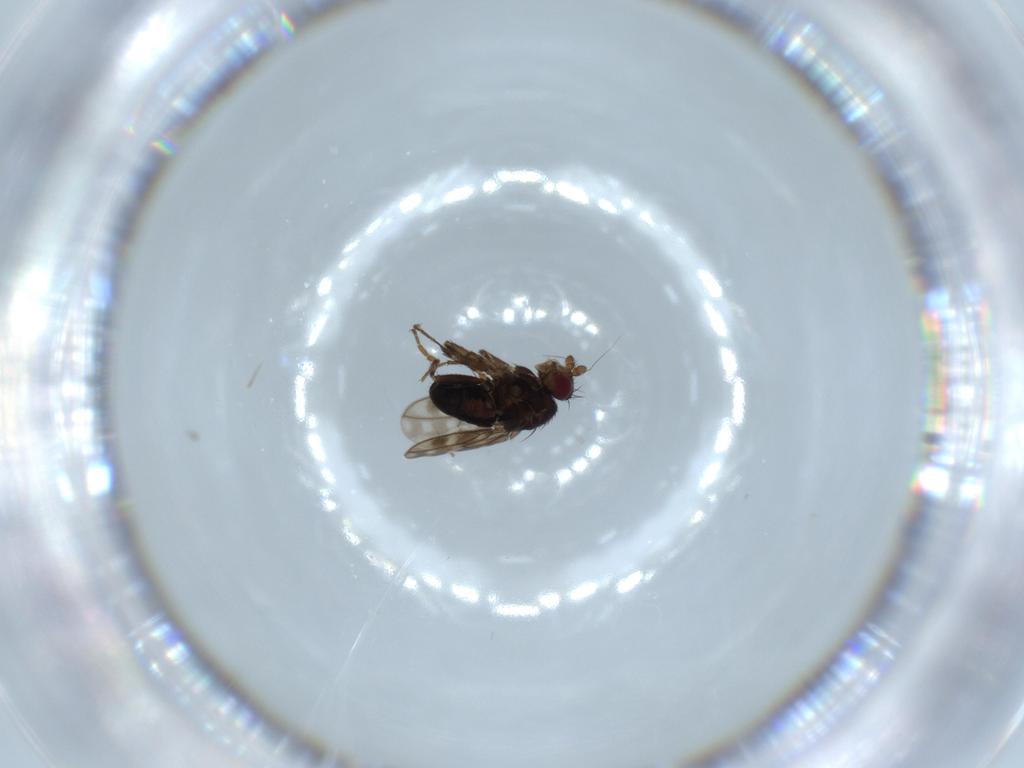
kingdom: Animalia
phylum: Arthropoda
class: Insecta
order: Diptera
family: Sphaeroceridae
